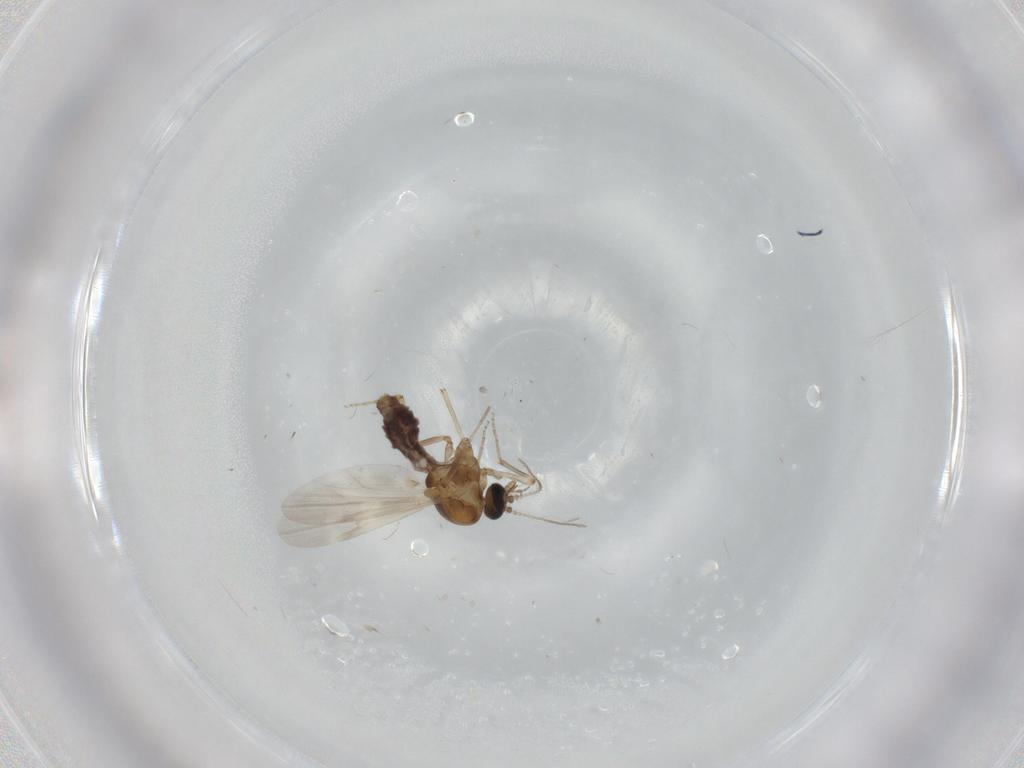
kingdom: Animalia
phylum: Arthropoda
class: Insecta
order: Diptera
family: Ceratopogonidae
